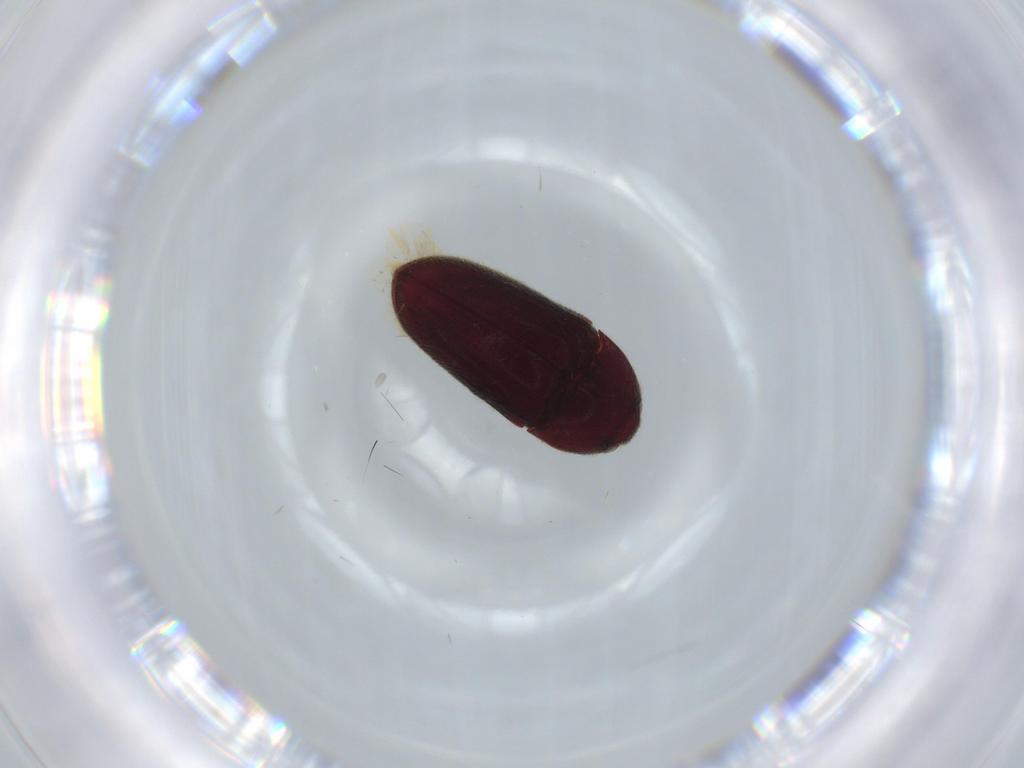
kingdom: Animalia
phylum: Arthropoda
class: Insecta
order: Coleoptera
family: Throscidae
